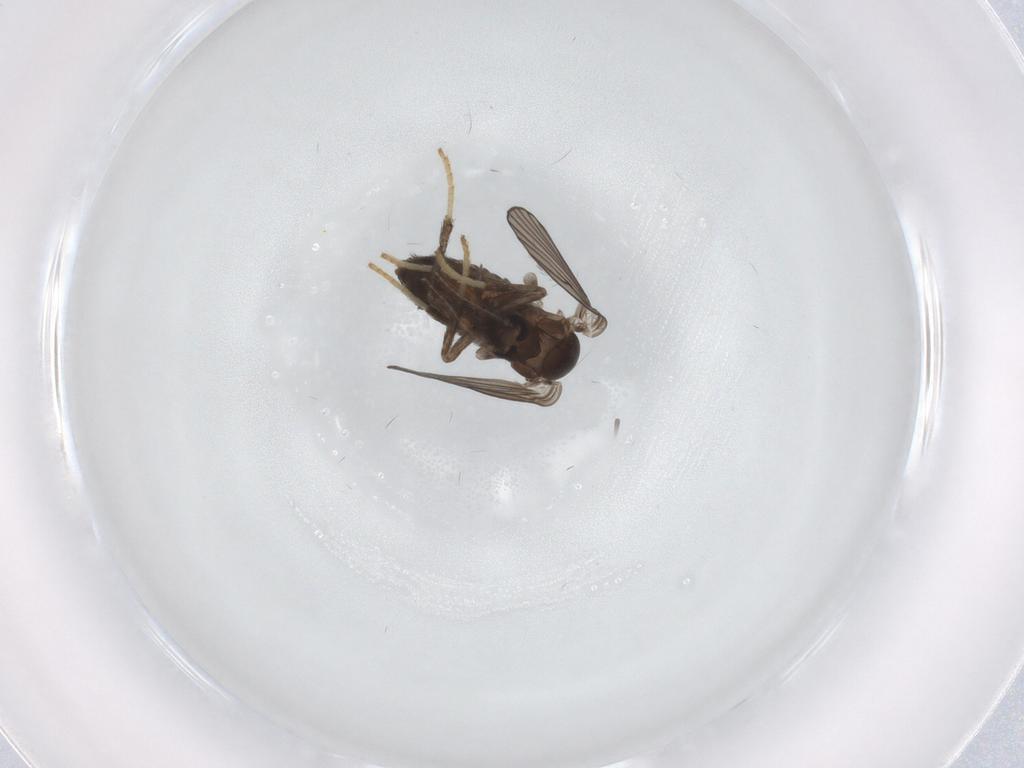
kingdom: Animalia
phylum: Arthropoda
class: Insecta
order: Diptera
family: Psychodidae
